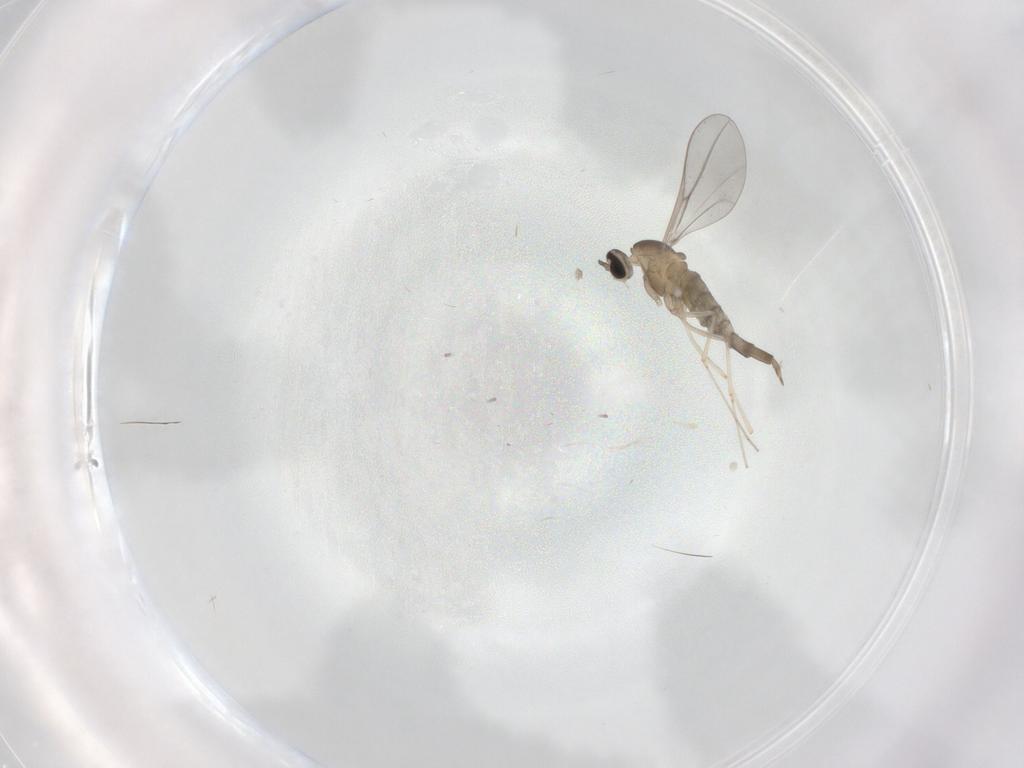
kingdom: Animalia
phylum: Arthropoda
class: Insecta
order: Diptera
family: Cecidomyiidae
